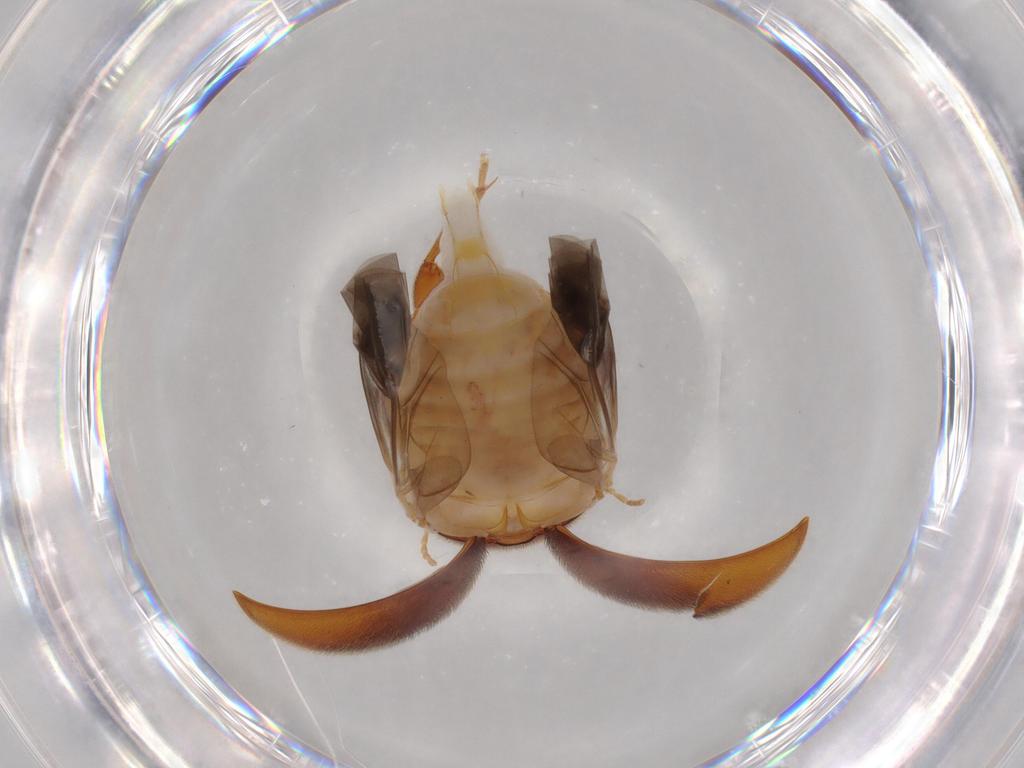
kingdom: Animalia
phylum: Arthropoda
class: Insecta
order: Coleoptera
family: Scirtidae
